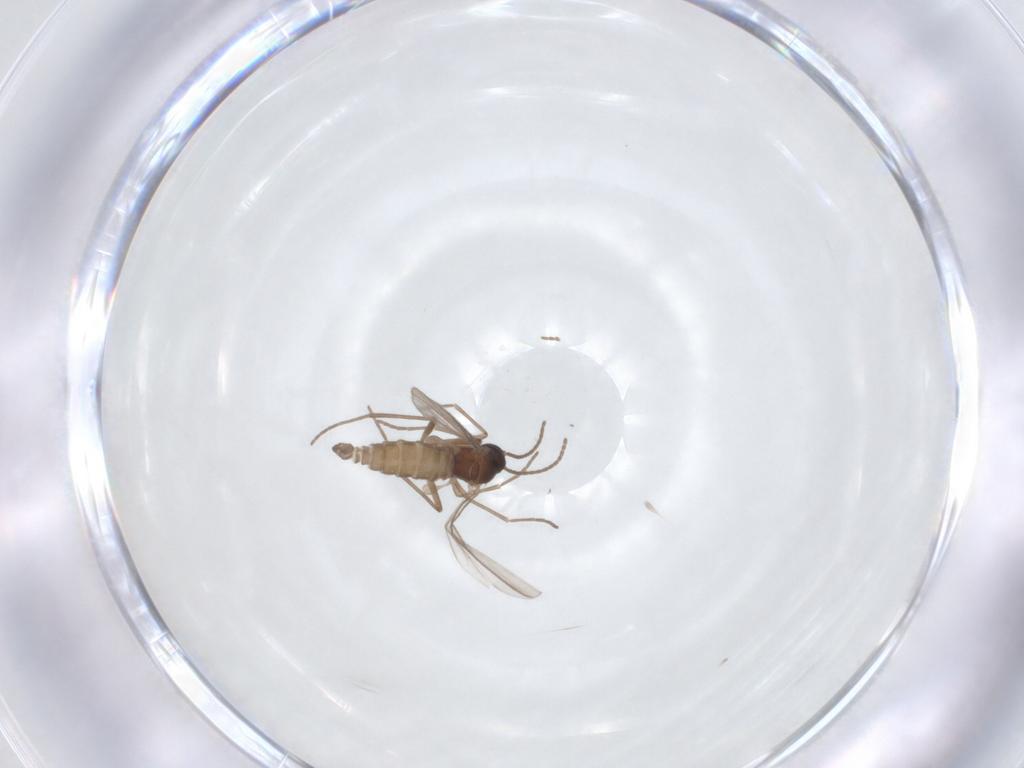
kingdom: Animalia
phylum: Arthropoda
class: Insecta
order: Diptera
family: Sciaridae
